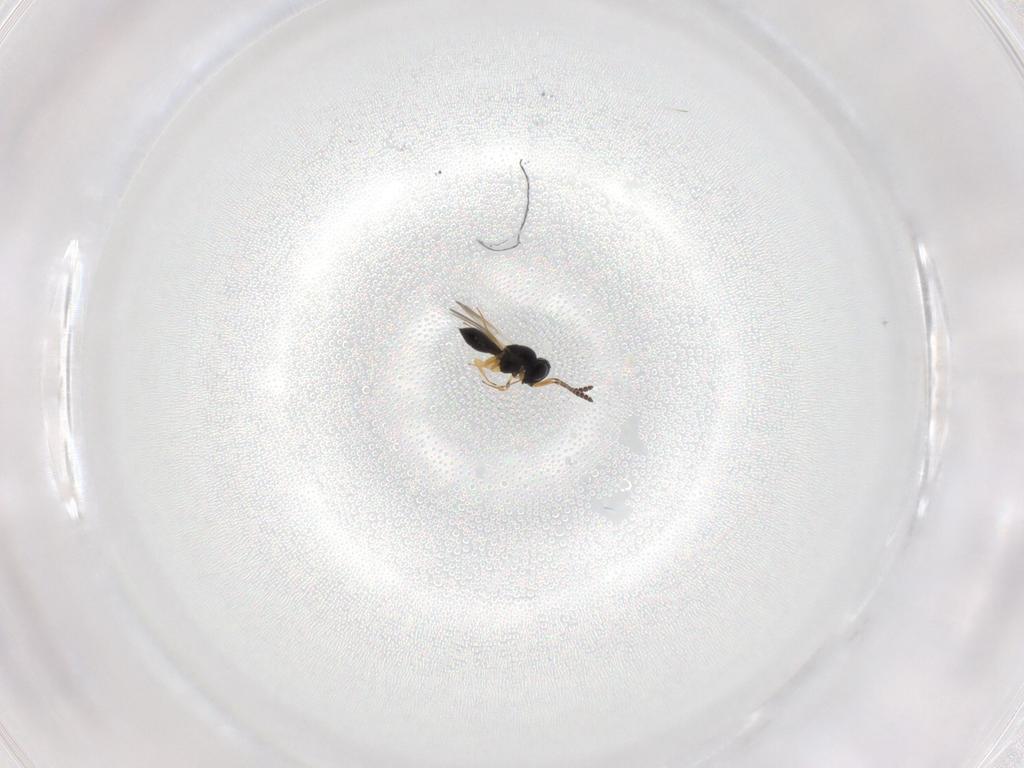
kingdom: Animalia
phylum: Arthropoda
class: Insecta
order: Hymenoptera
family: Scelionidae
